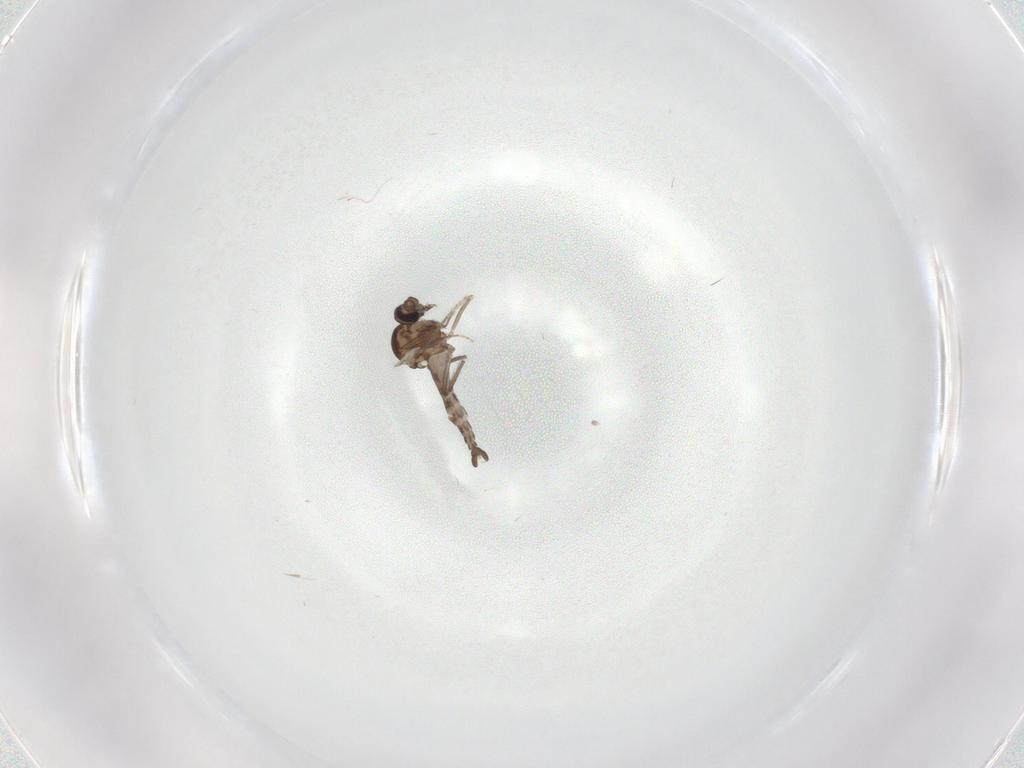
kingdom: Animalia
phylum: Arthropoda
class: Insecta
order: Diptera
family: Ceratopogonidae
